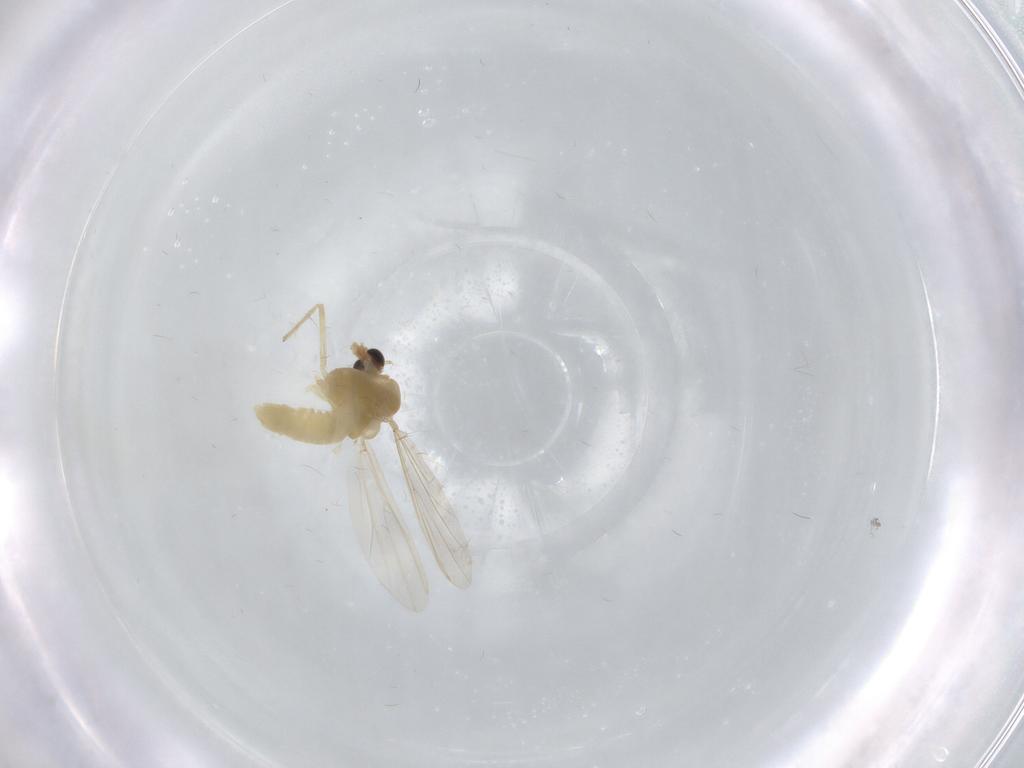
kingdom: Animalia
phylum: Arthropoda
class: Insecta
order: Diptera
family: Chironomidae
